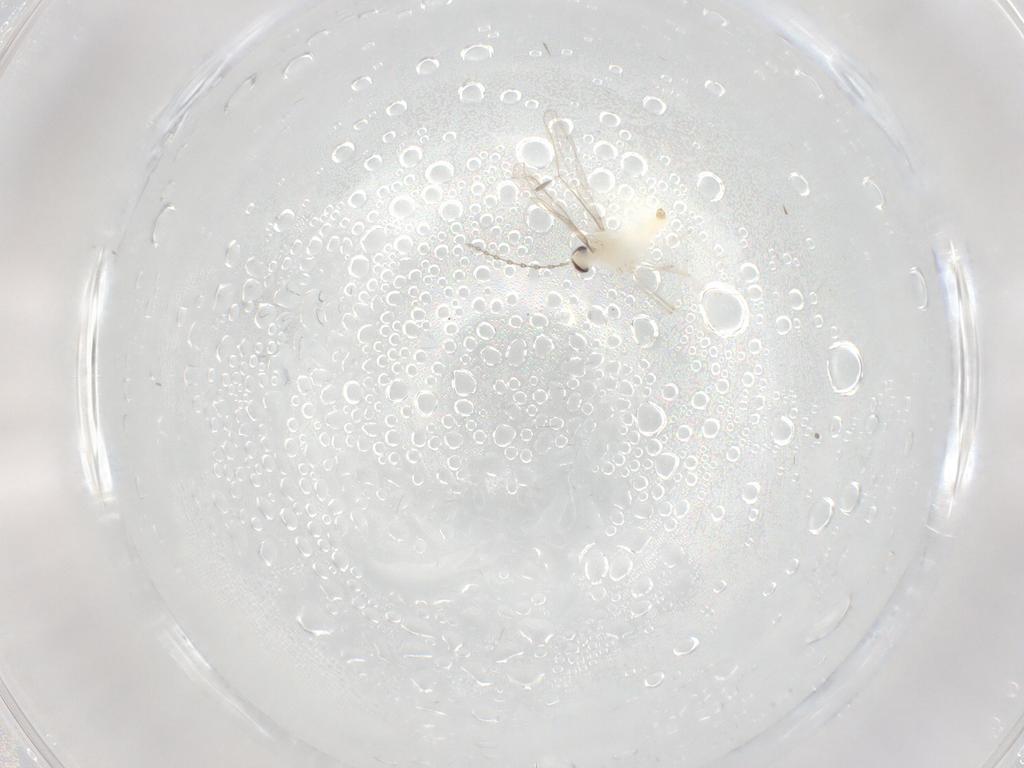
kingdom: Animalia
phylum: Arthropoda
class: Insecta
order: Diptera
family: Cecidomyiidae
